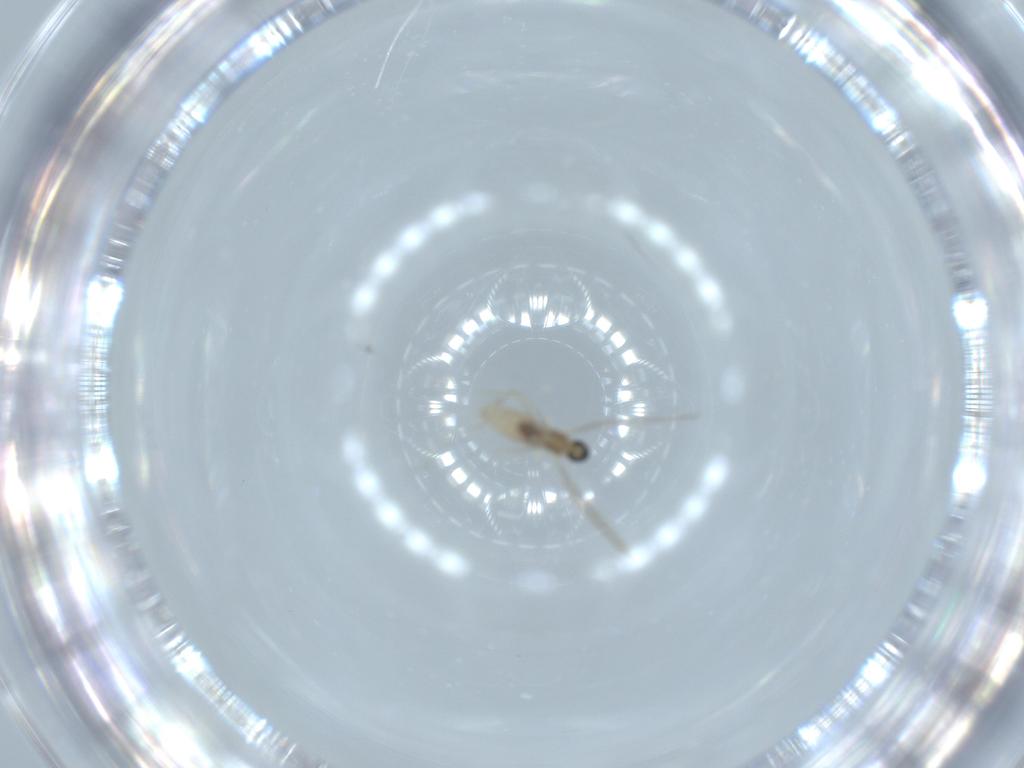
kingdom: Animalia
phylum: Arthropoda
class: Insecta
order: Diptera
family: Cecidomyiidae
